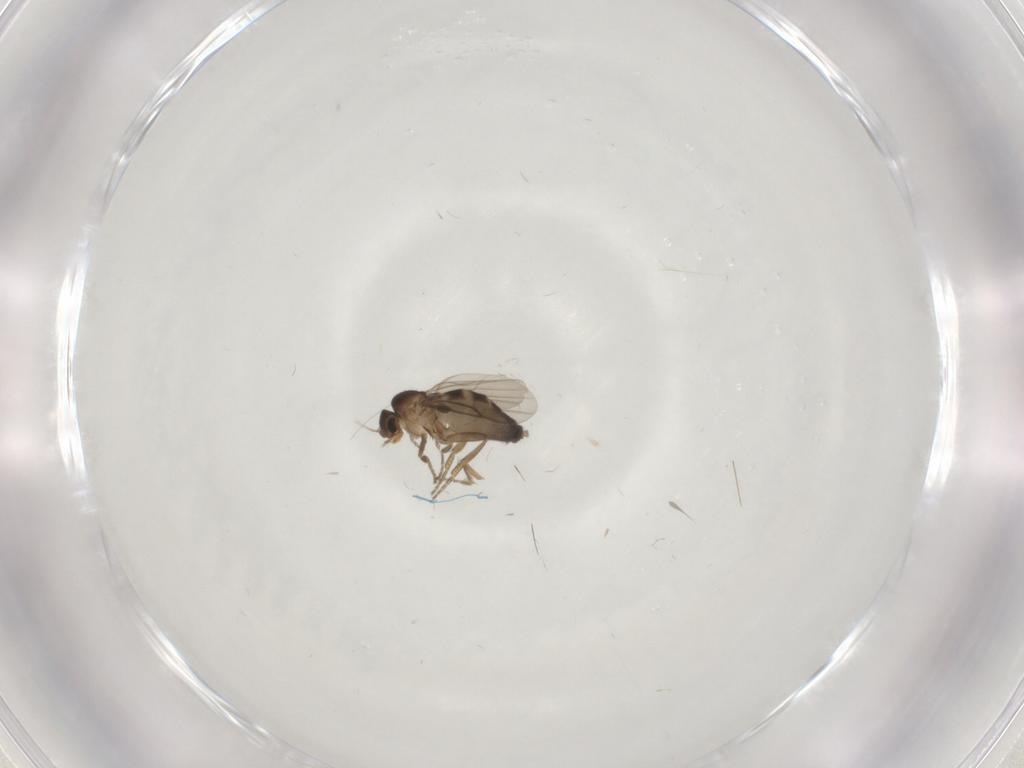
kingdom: Animalia
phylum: Arthropoda
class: Insecta
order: Diptera
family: Phoridae
